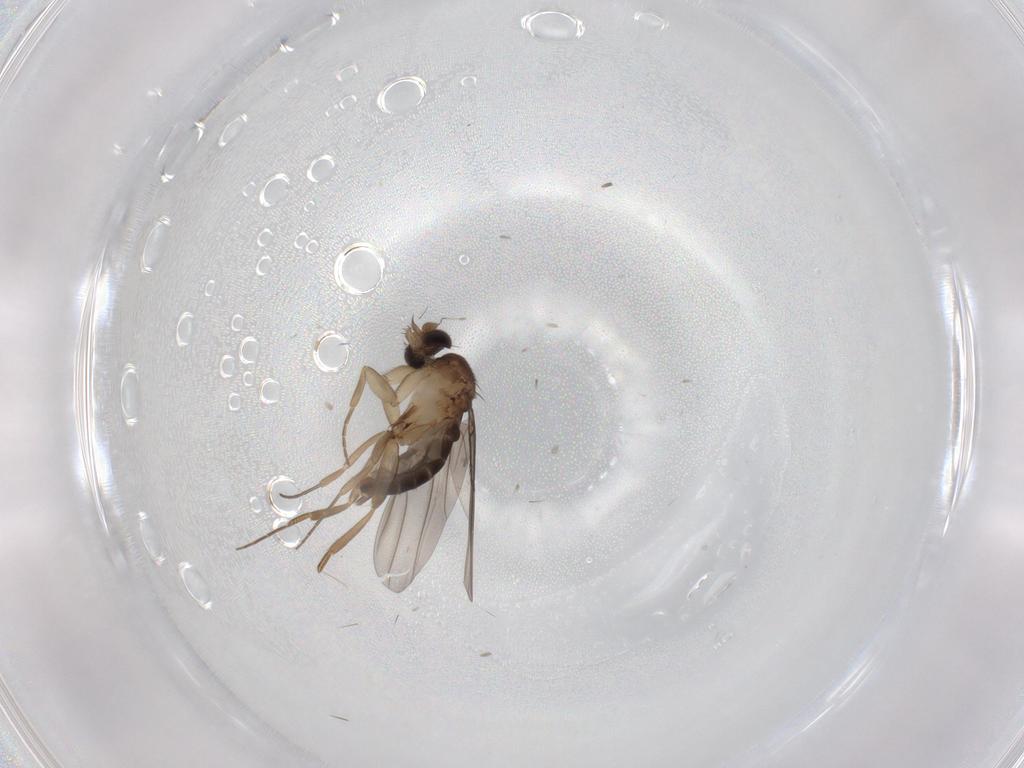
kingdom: Animalia
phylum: Arthropoda
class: Insecta
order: Diptera
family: Phoridae
